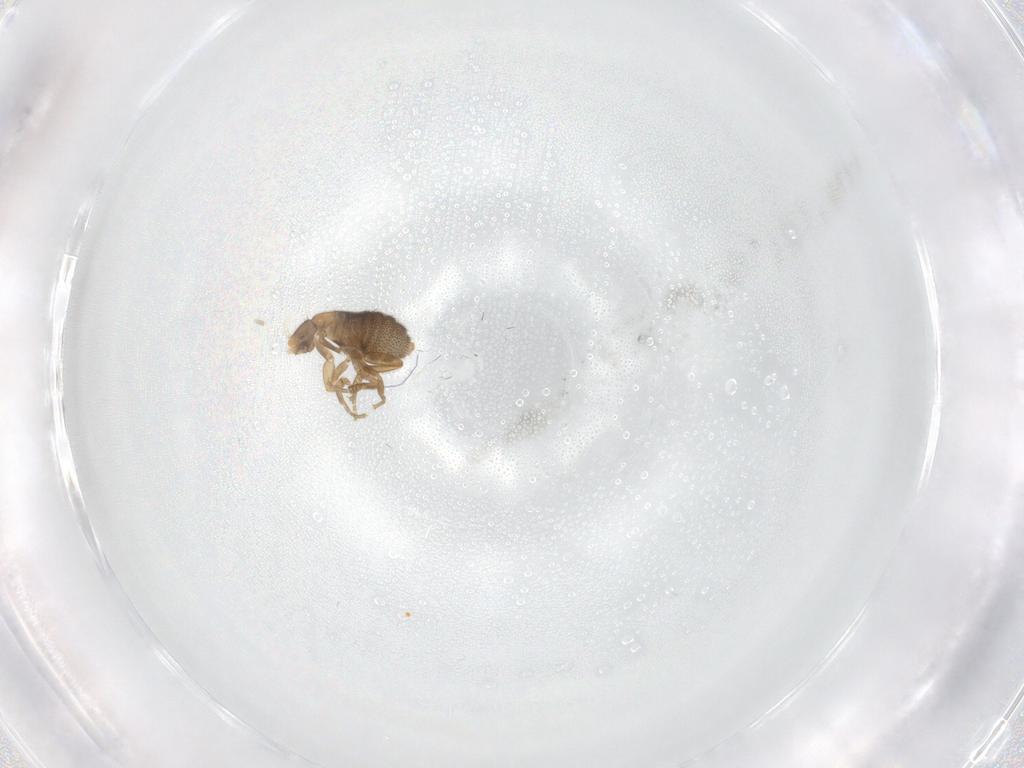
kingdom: Animalia
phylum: Arthropoda
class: Insecta
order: Diptera
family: Phoridae
